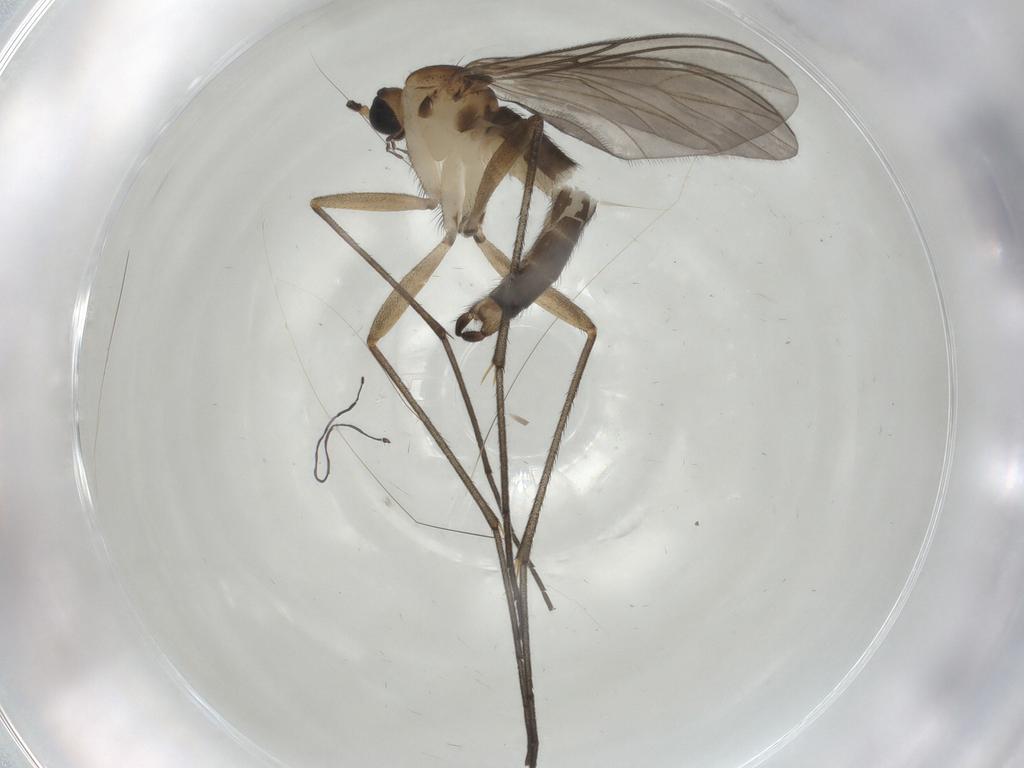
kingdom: Animalia
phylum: Arthropoda
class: Insecta
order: Diptera
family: Sciaridae
